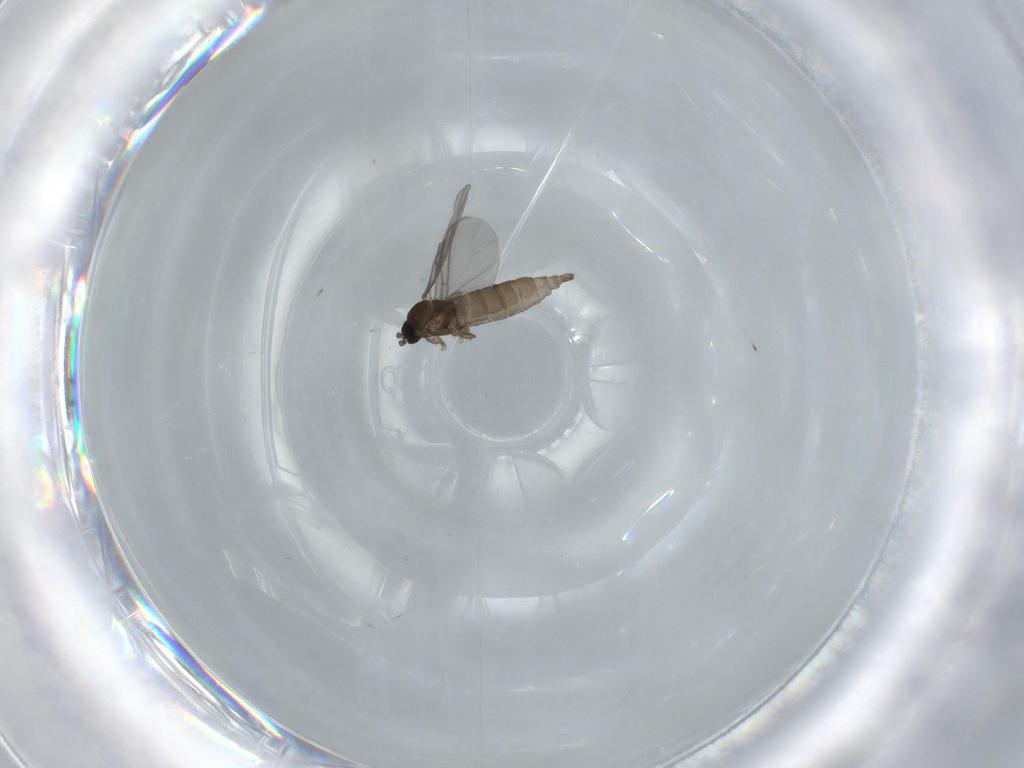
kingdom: Animalia
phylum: Arthropoda
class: Insecta
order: Diptera
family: Sciaridae
